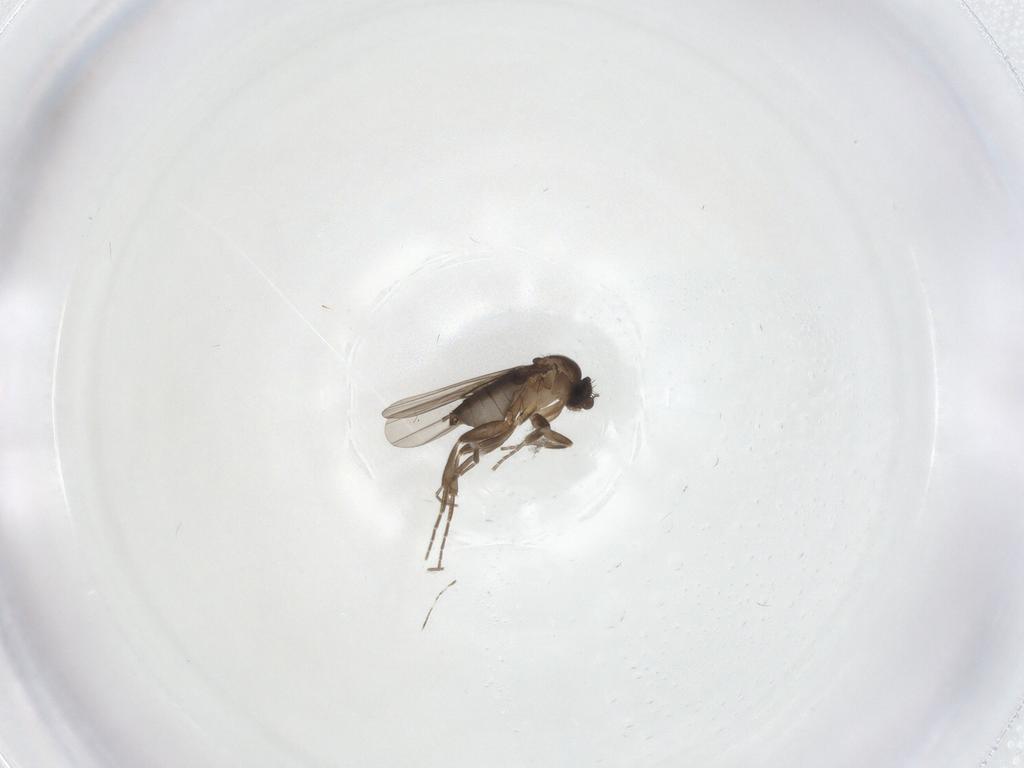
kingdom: Animalia
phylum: Arthropoda
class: Insecta
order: Diptera
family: Phoridae
